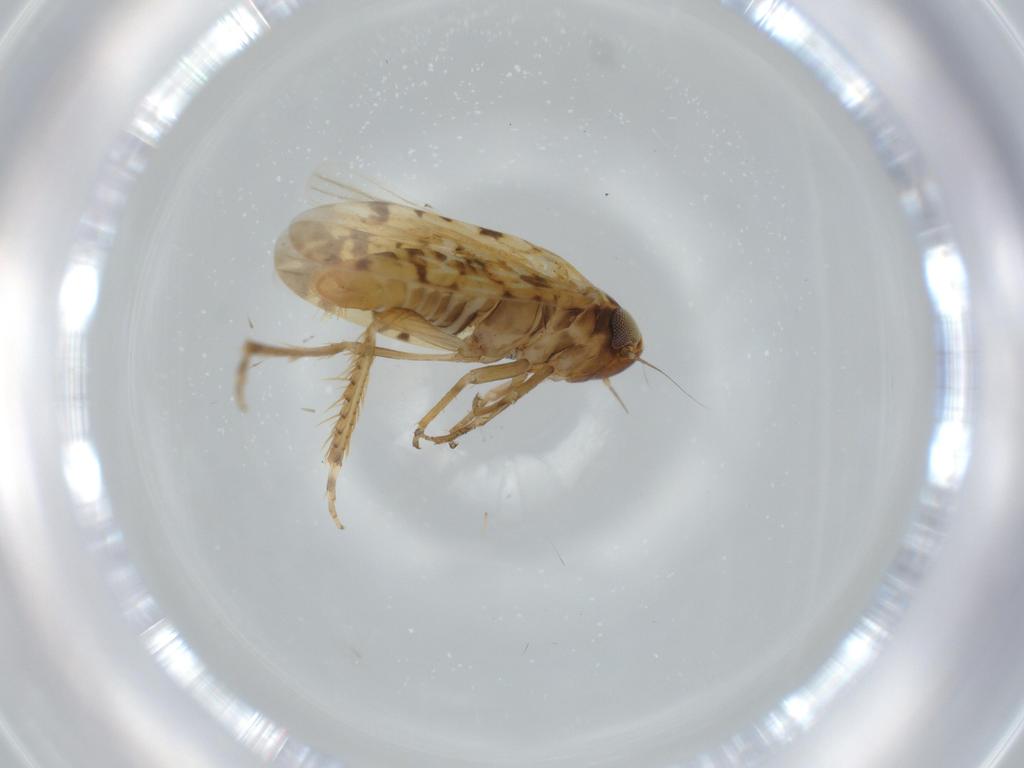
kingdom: Animalia
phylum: Arthropoda
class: Insecta
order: Hemiptera
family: Cicadellidae
